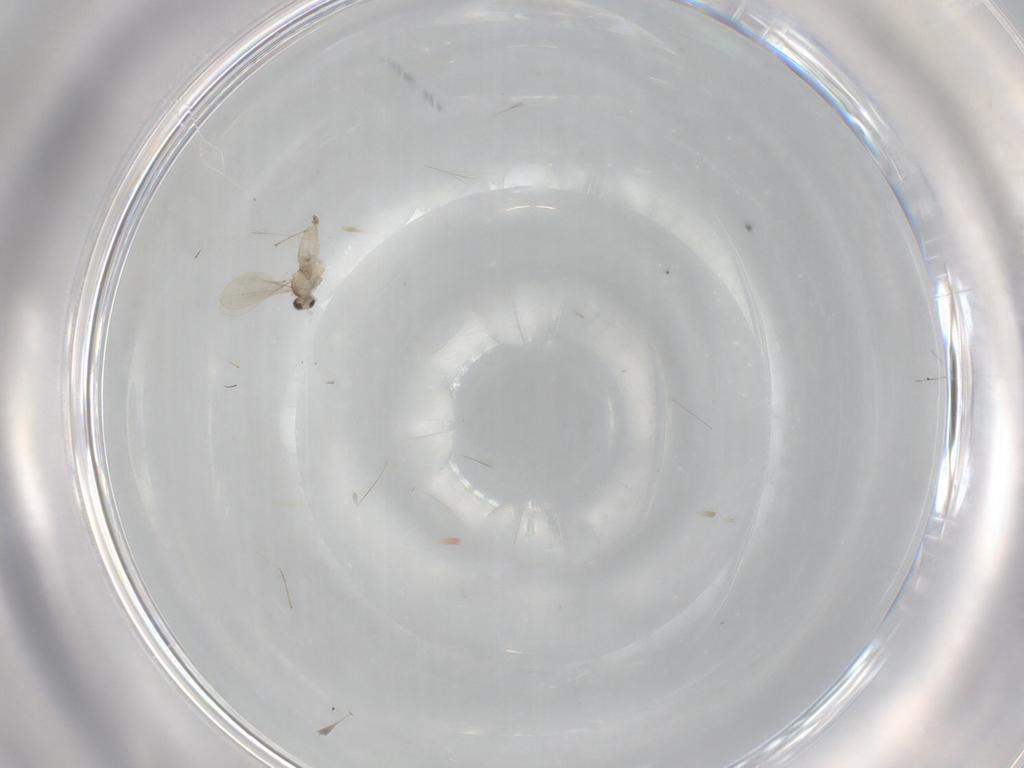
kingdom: Animalia
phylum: Arthropoda
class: Insecta
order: Diptera
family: Cecidomyiidae
